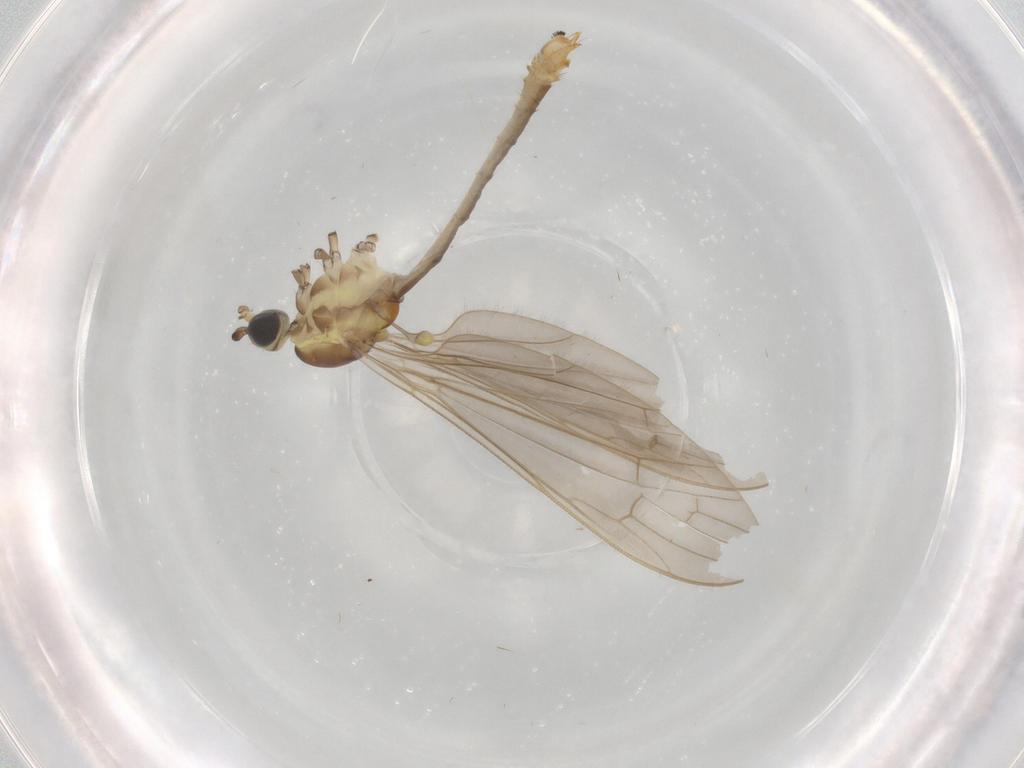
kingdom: Animalia
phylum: Arthropoda
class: Insecta
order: Diptera
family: Limoniidae
